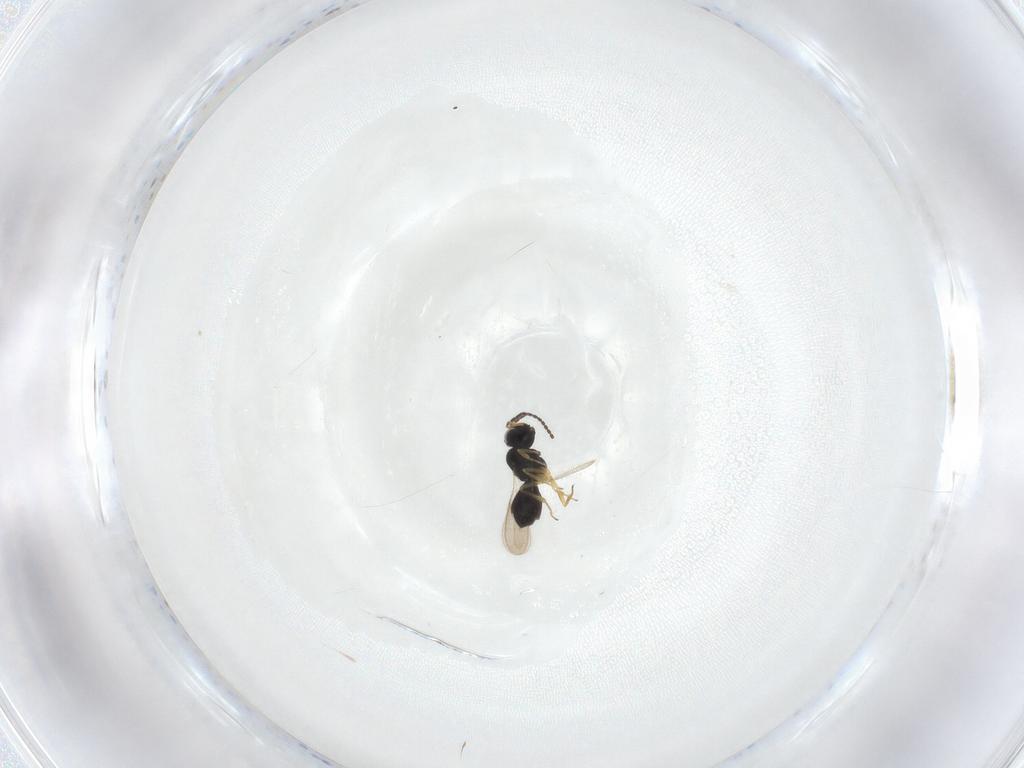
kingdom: Animalia
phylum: Arthropoda
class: Insecta
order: Hymenoptera
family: Scelionidae
